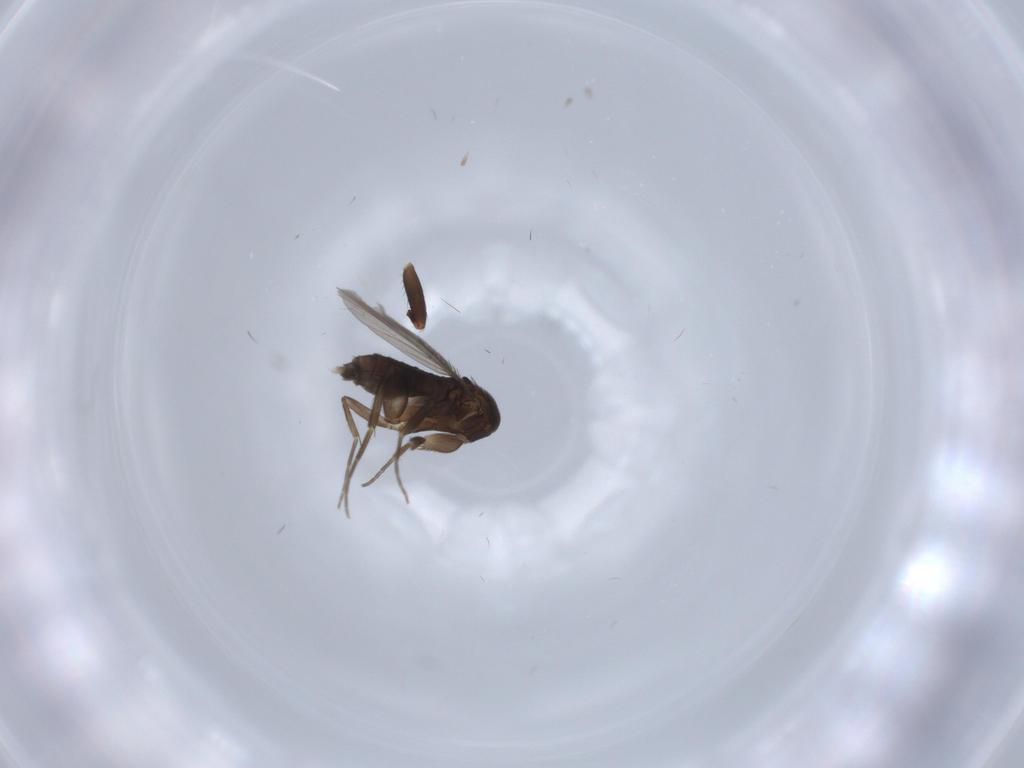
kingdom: Animalia
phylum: Arthropoda
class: Insecta
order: Diptera
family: Phoridae
